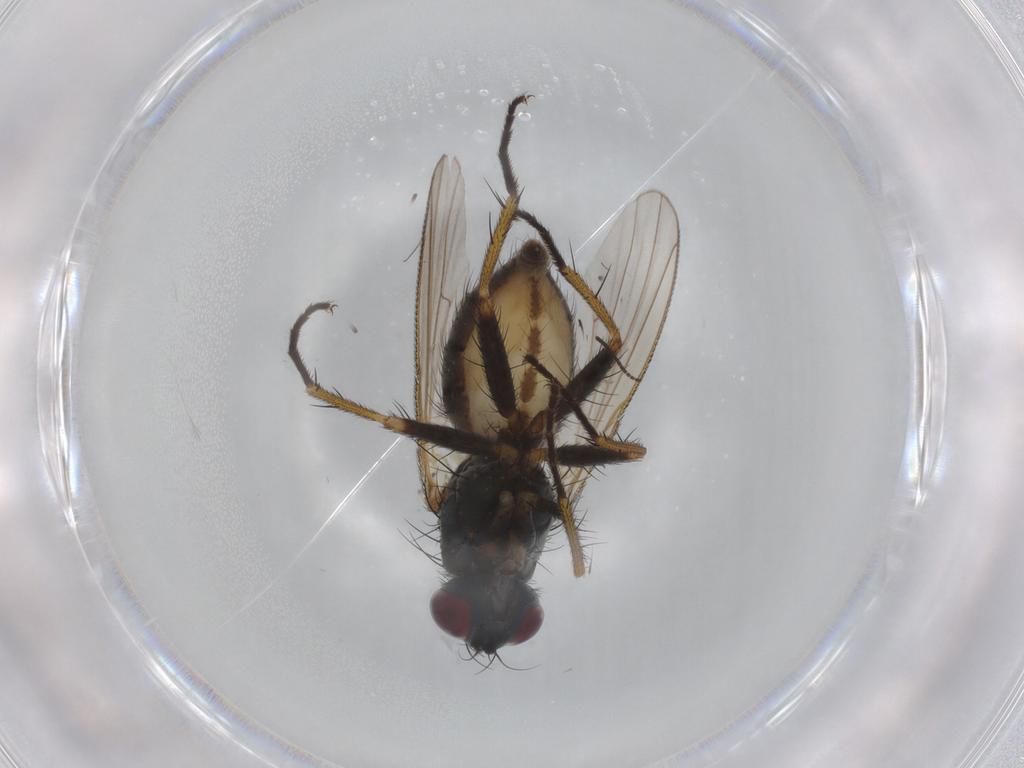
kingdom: Animalia
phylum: Arthropoda
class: Insecta
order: Diptera
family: Muscidae
